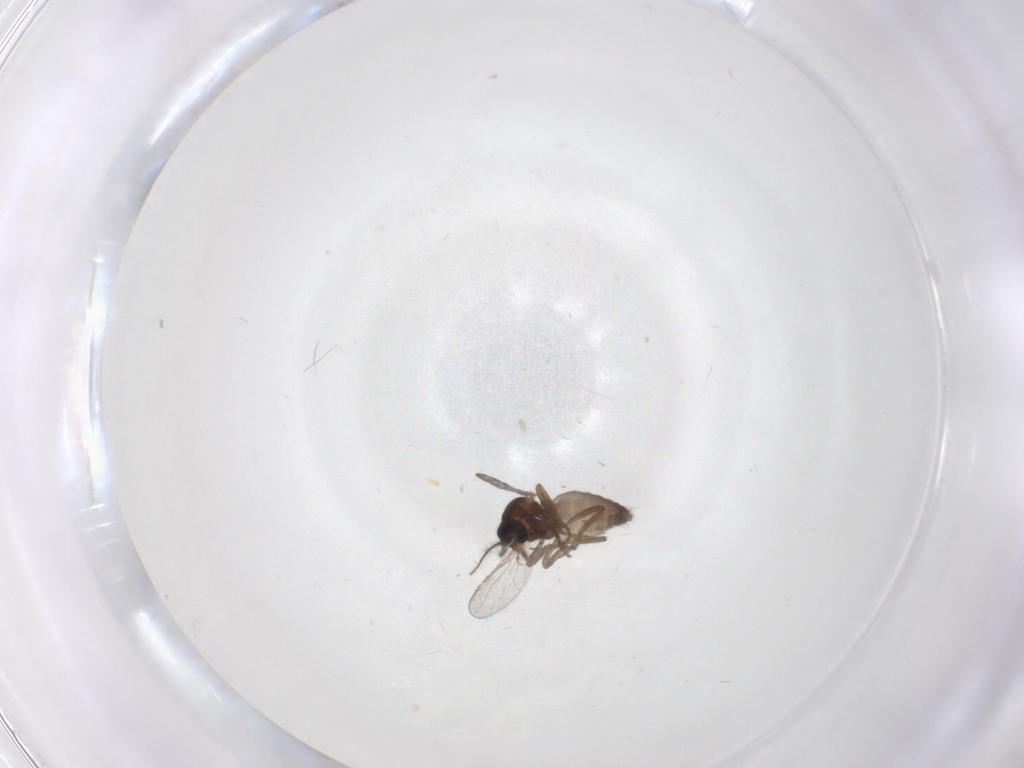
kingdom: Animalia
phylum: Arthropoda
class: Insecta
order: Diptera
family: Ceratopogonidae
